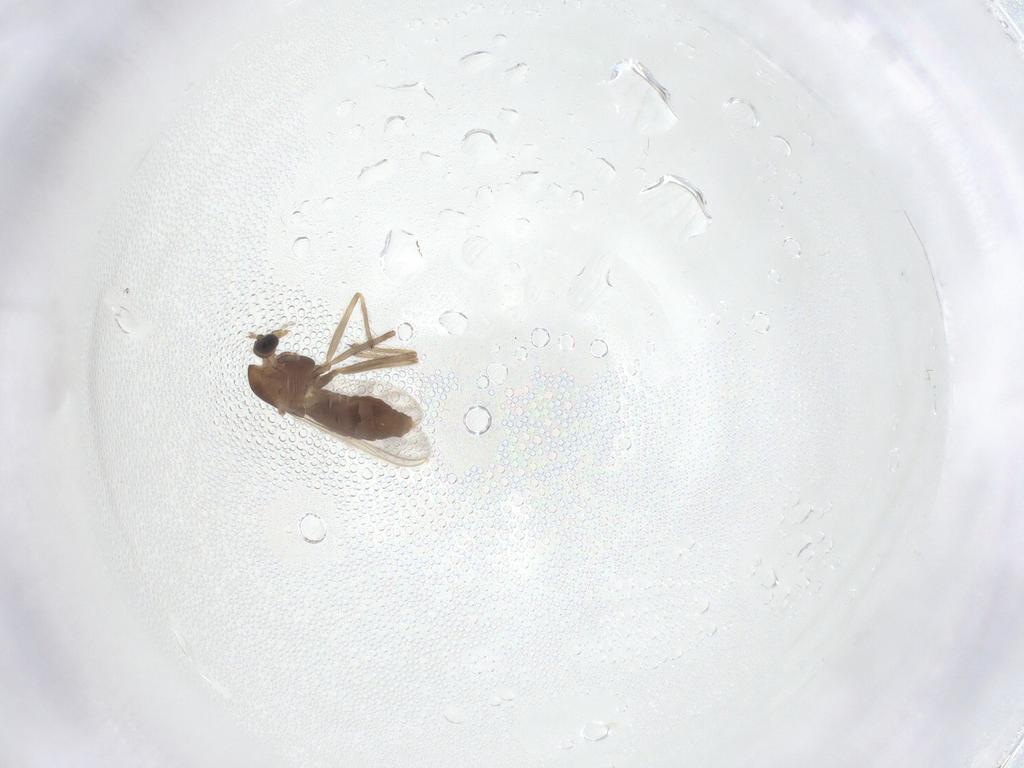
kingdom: Animalia
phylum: Arthropoda
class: Insecta
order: Diptera
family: Chironomidae
